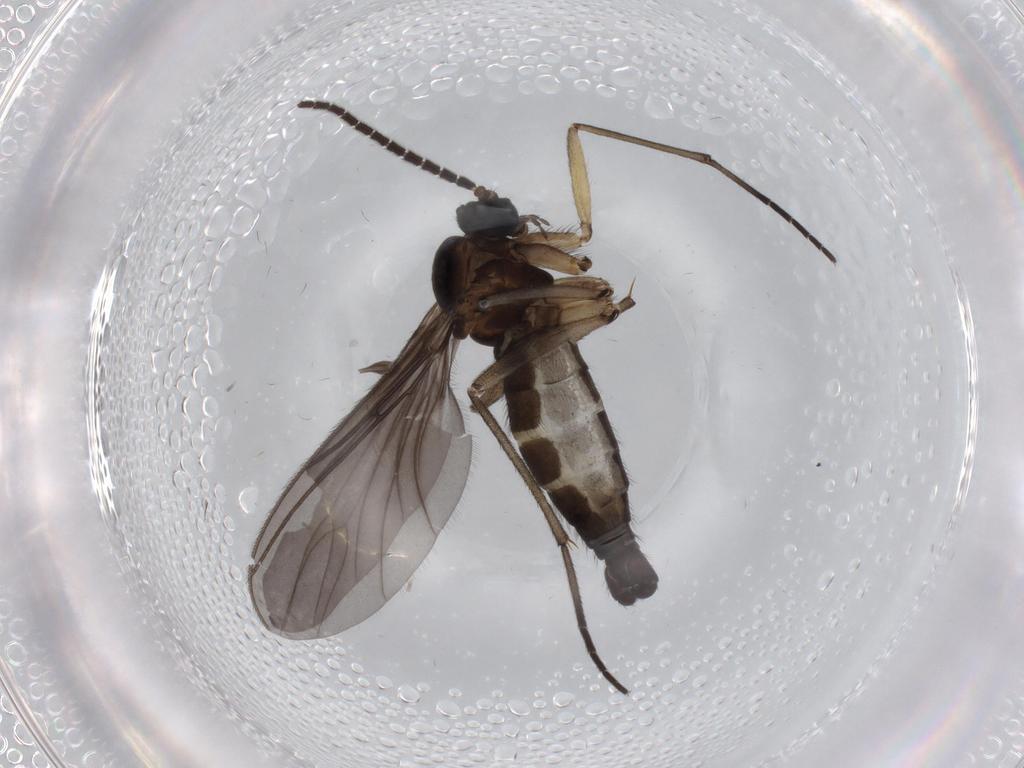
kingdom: Animalia
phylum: Arthropoda
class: Insecta
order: Diptera
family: Sciaridae
